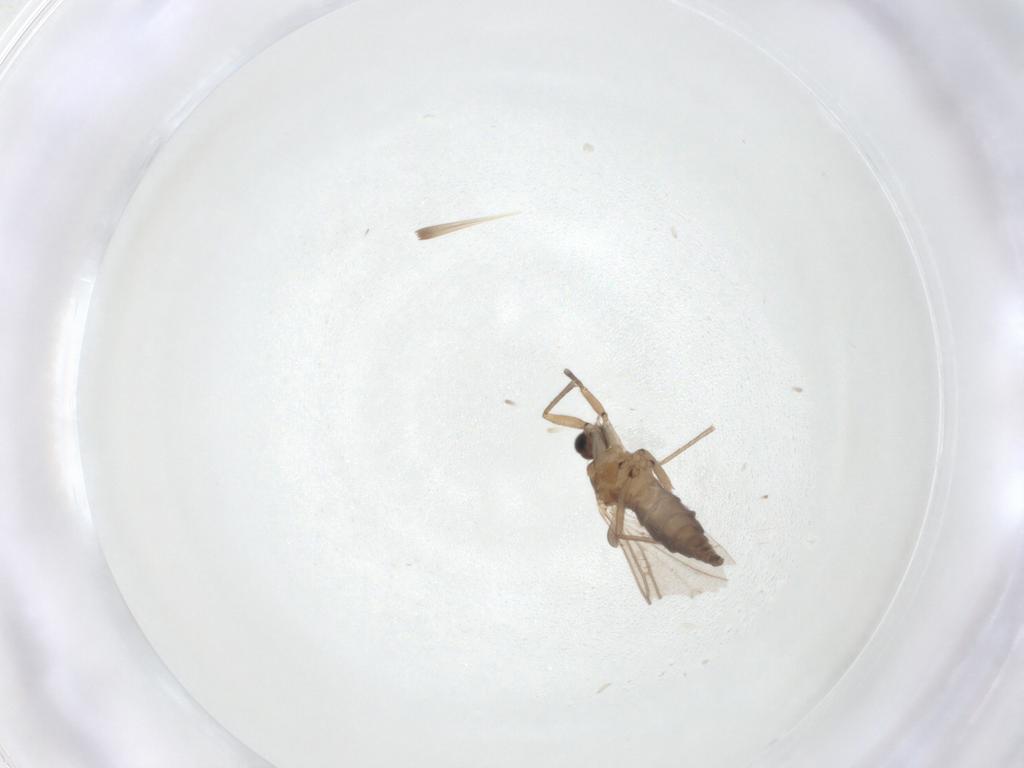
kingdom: Animalia
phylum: Arthropoda
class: Insecta
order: Diptera
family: Sciaridae
